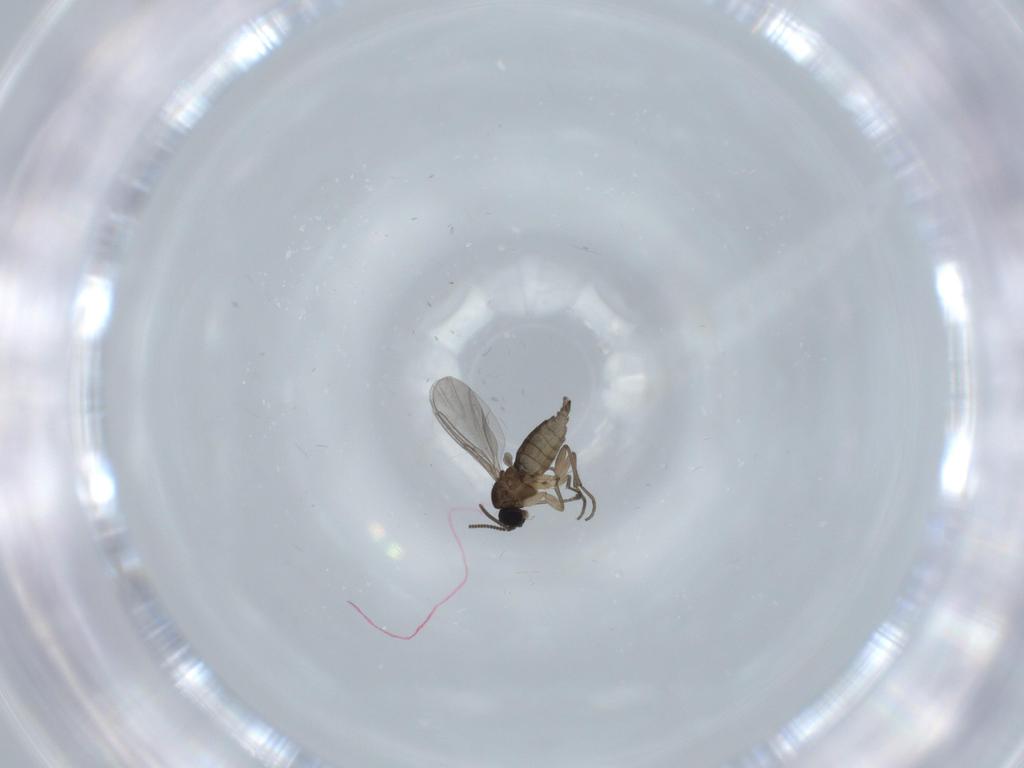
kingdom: Animalia
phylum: Arthropoda
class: Insecta
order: Diptera
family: Sciaridae
